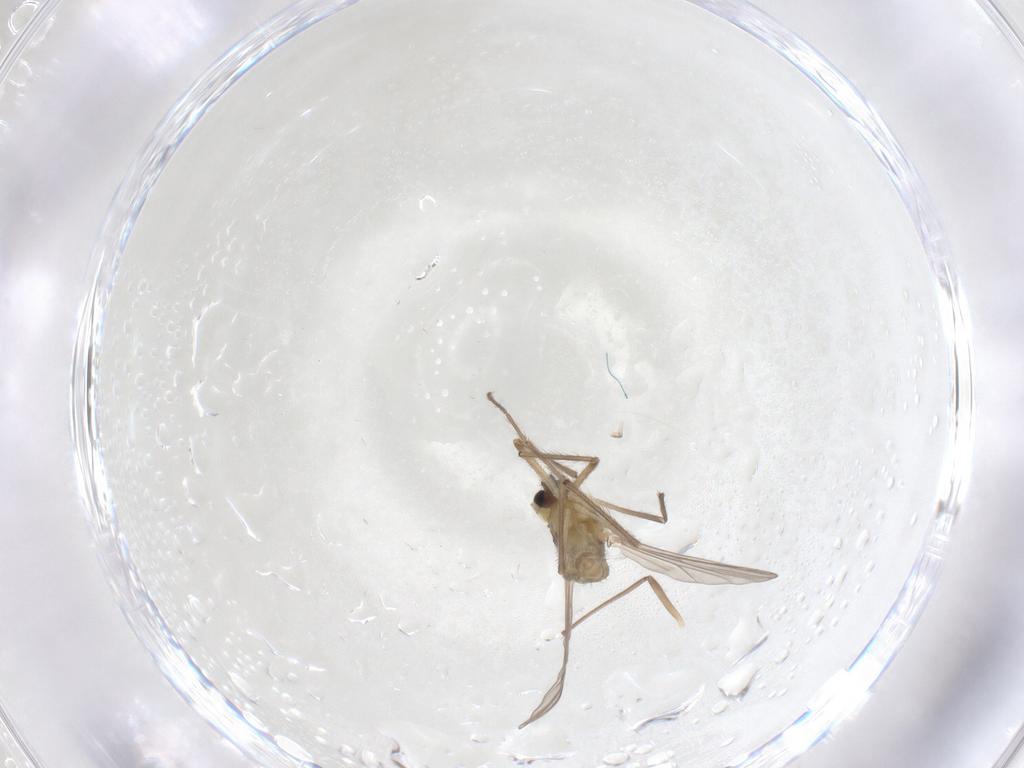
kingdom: Animalia
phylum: Arthropoda
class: Insecta
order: Diptera
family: Chironomidae
